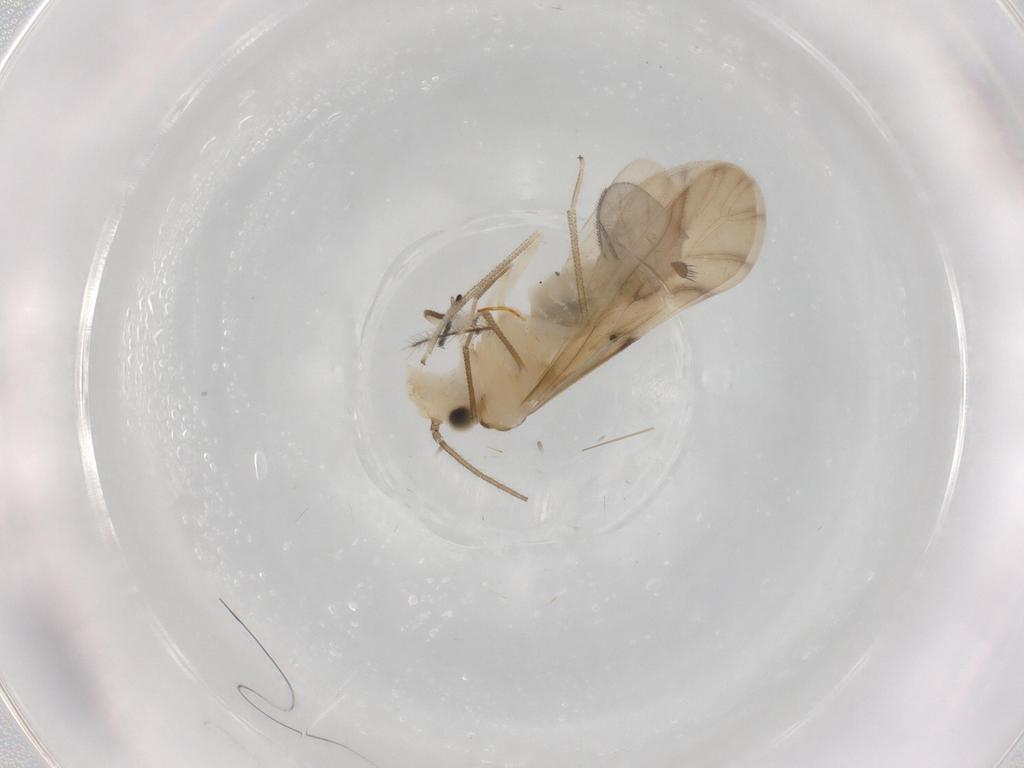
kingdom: Animalia
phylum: Arthropoda
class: Insecta
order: Psocodea
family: Caeciliusidae
